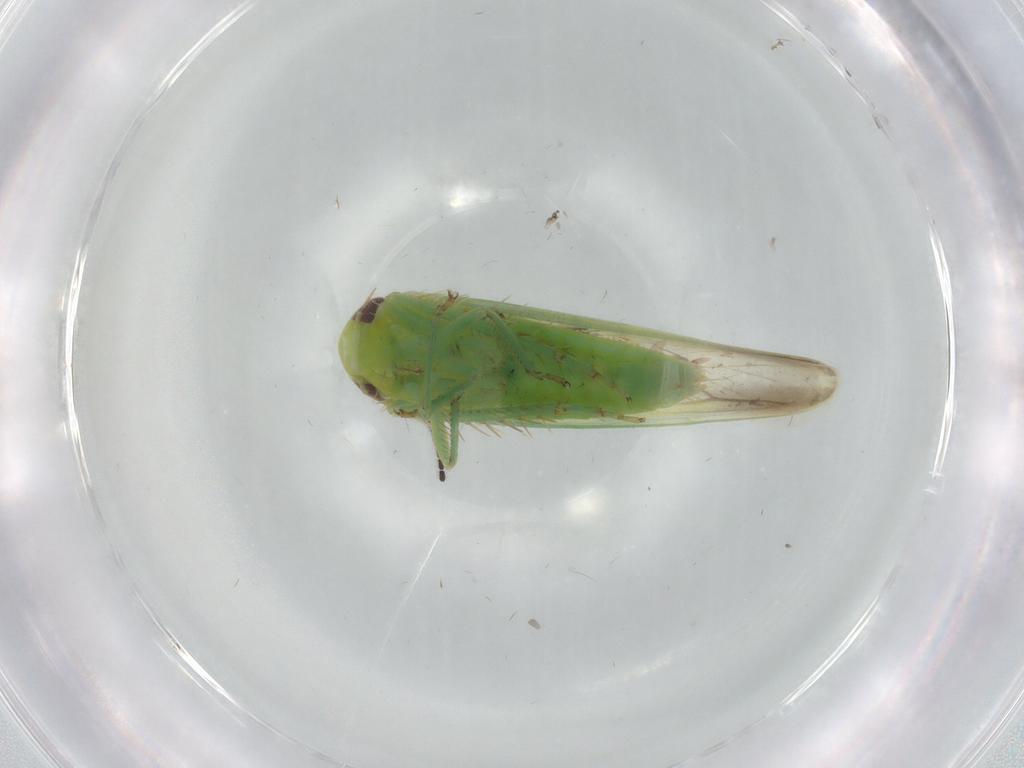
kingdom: Animalia
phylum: Arthropoda
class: Insecta
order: Hemiptera
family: Cicadellidae
